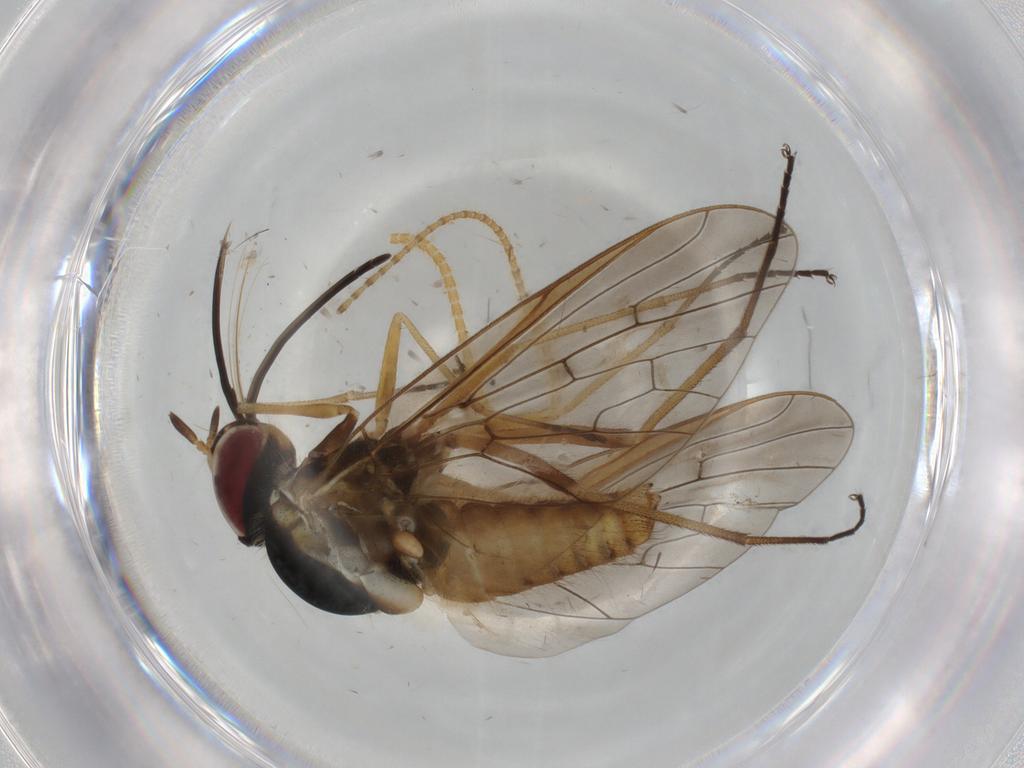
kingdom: Animalia
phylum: Arthropoda
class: Insecta
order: Diptera
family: Bombyliidae
